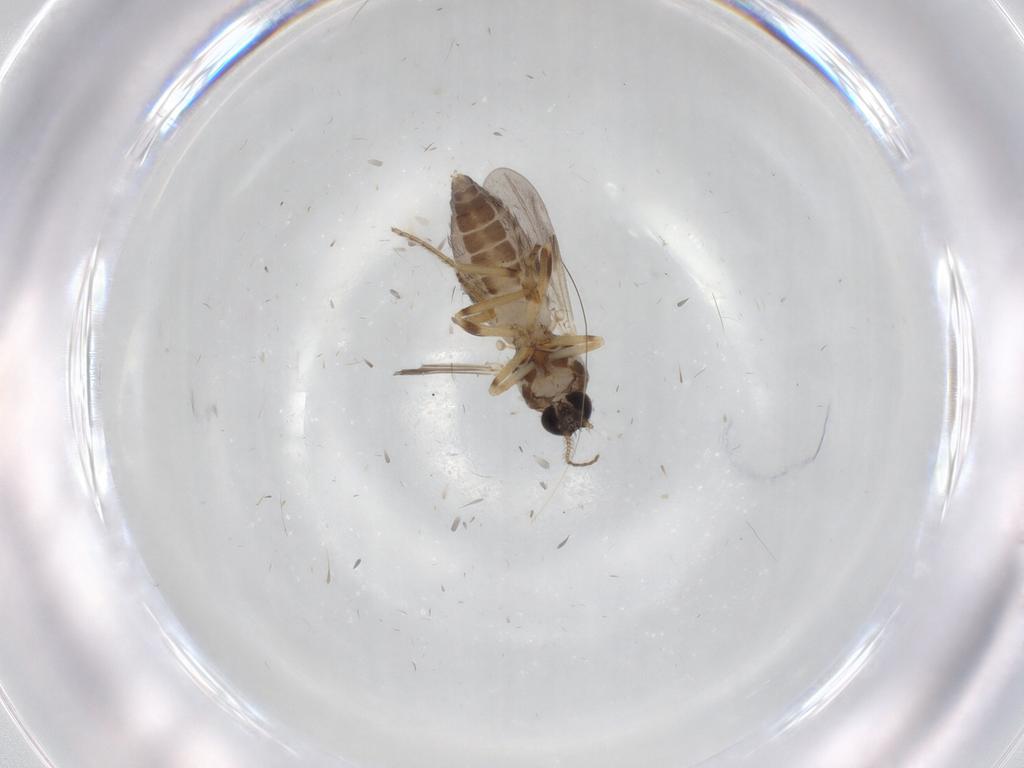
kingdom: Animalia
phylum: Arthropoda
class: Insecta
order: Diptera
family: Ceratopogonidae
